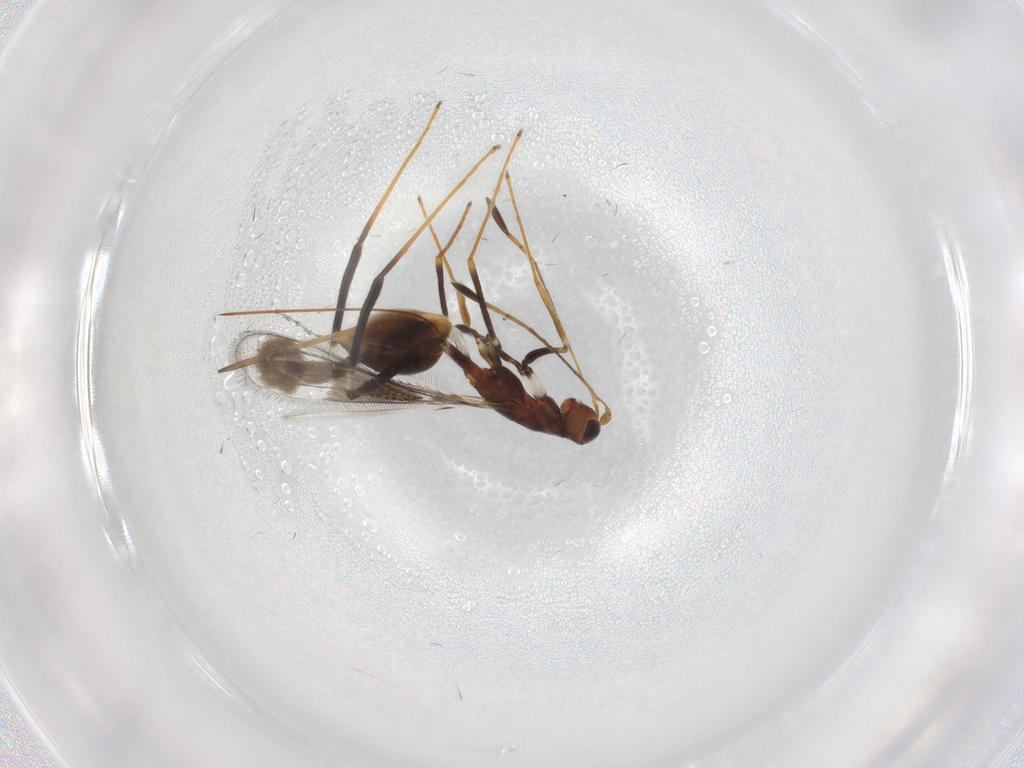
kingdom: Animalia
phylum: Arthropoda
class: Insecta
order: Hymenoptera
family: Mymaridae
